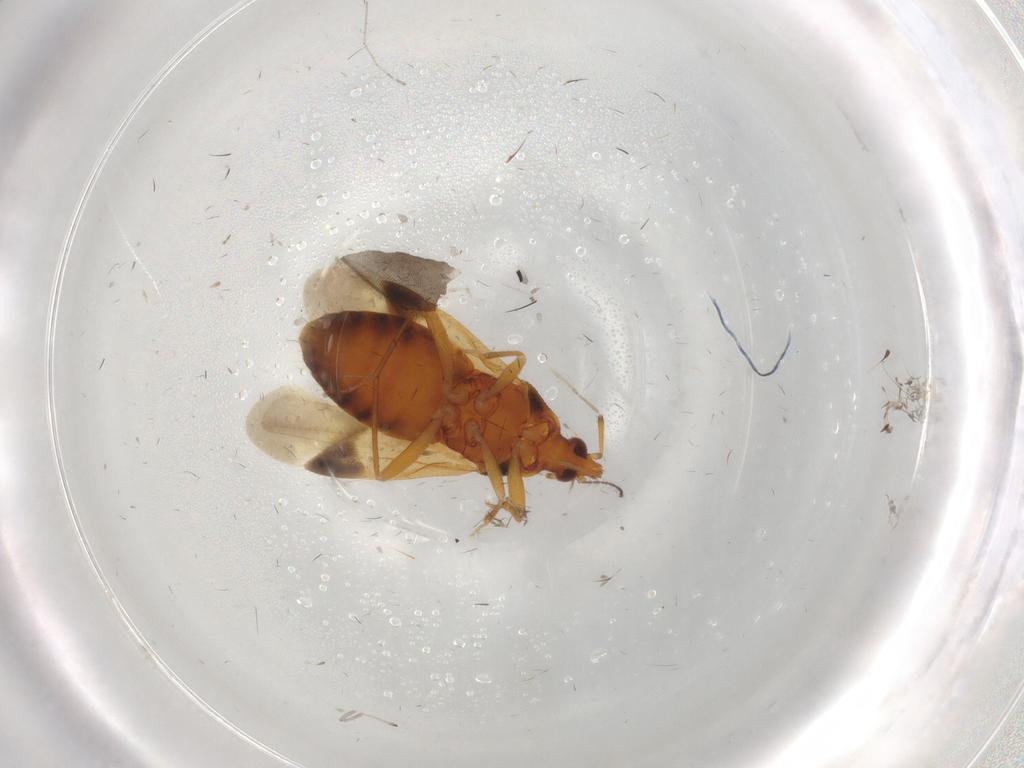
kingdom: Animalia
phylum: Arthropoda
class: Insecta
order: Hemiptera
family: Anthocoridae
